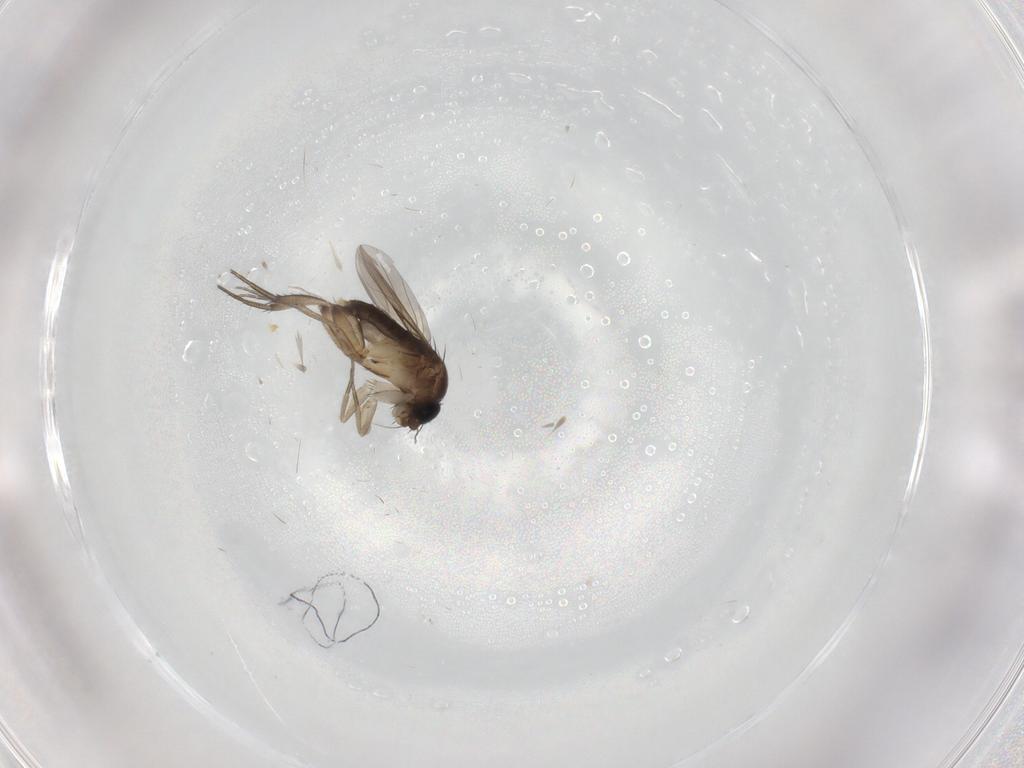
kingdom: Animalia
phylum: Arthropoda
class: Insecta
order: Diptera
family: Phoridae
